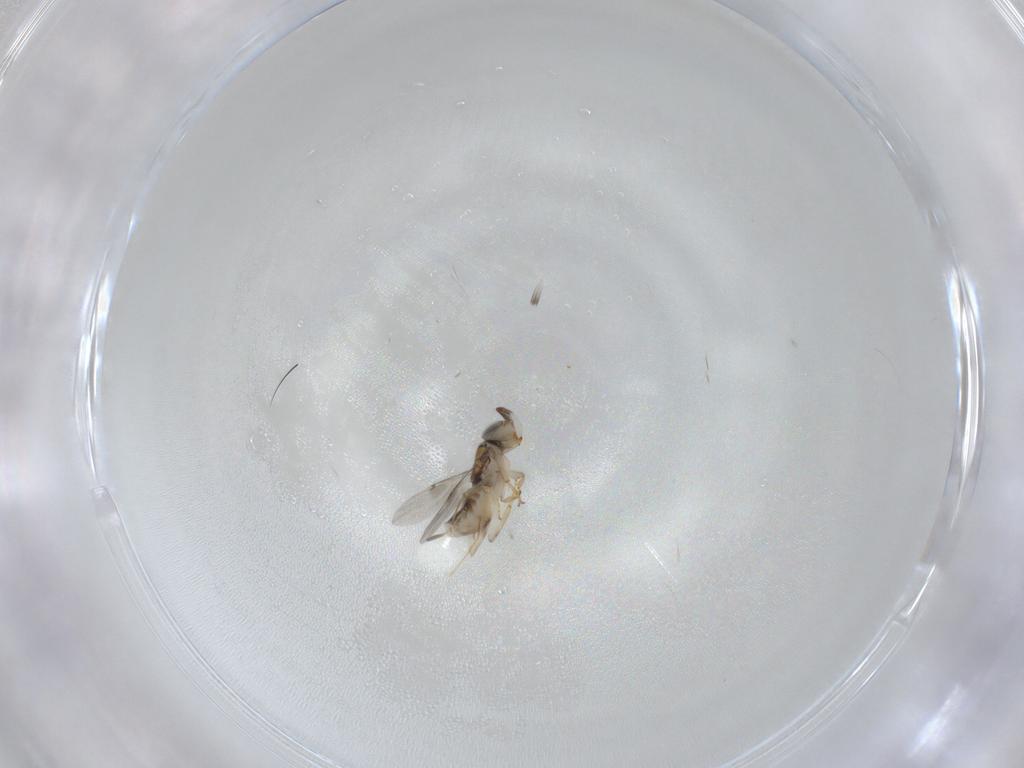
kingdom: Animalia
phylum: Arthropoda
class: Insecta
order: Hymenoptera
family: Encyrtidae
